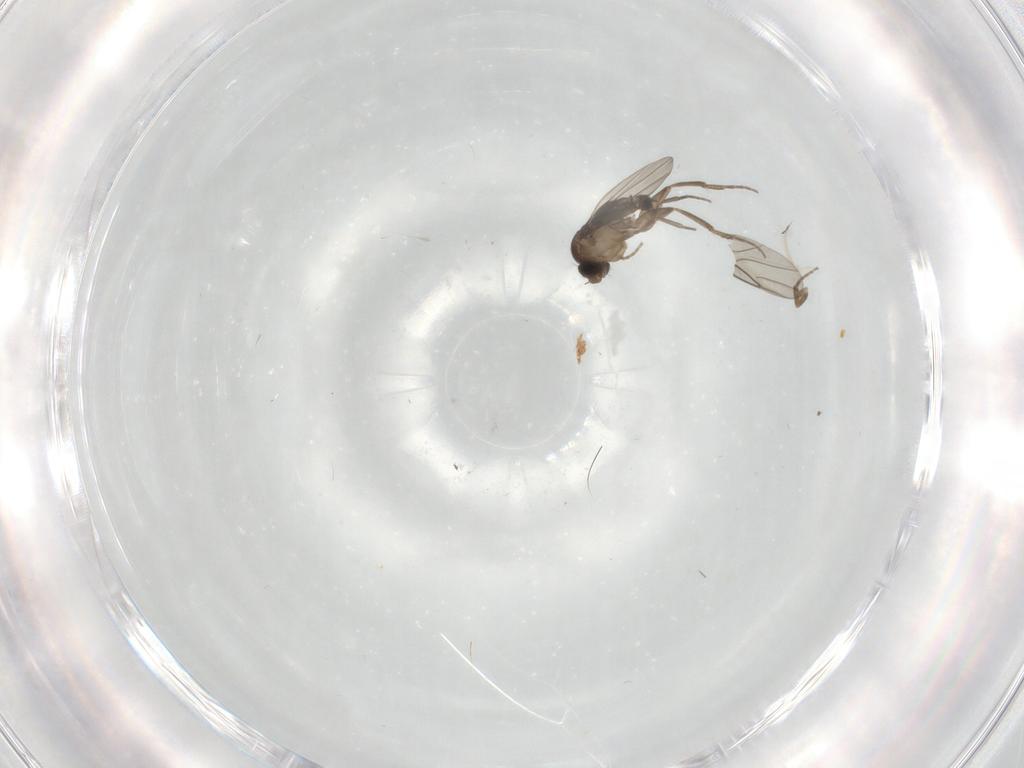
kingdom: Animalia
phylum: Arthropoda
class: Insecta
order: Diptera
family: Phoridae
